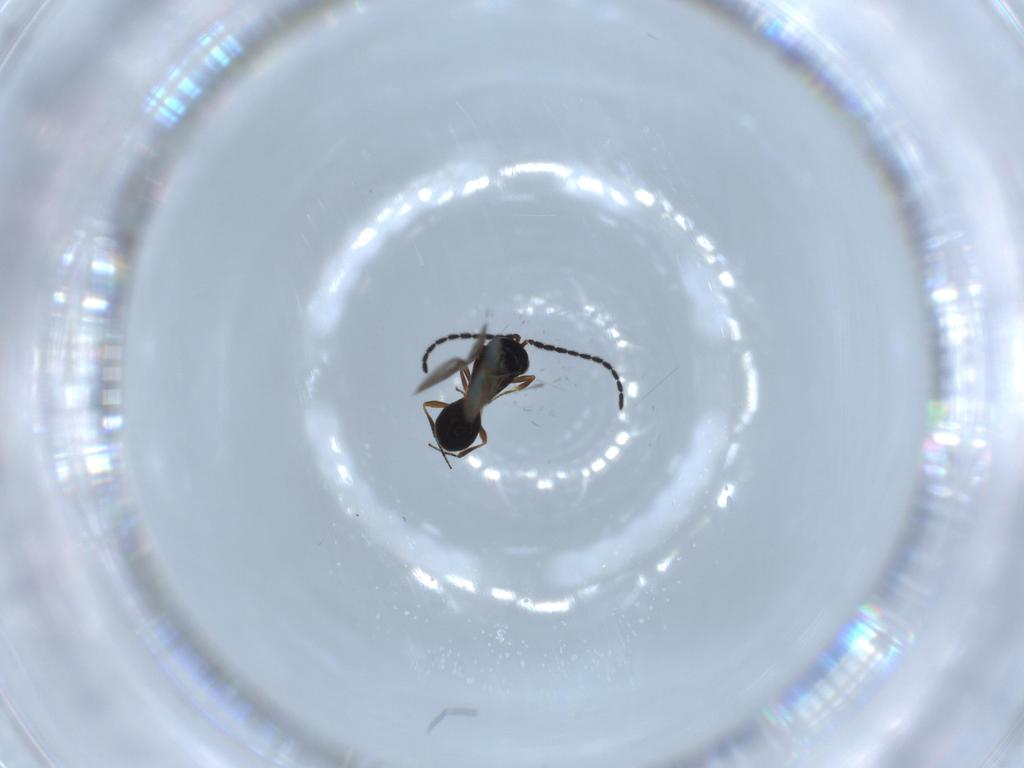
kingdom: Animalia
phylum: Arthropoda
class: Insecta
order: Hymenoptera
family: Scelionidae
